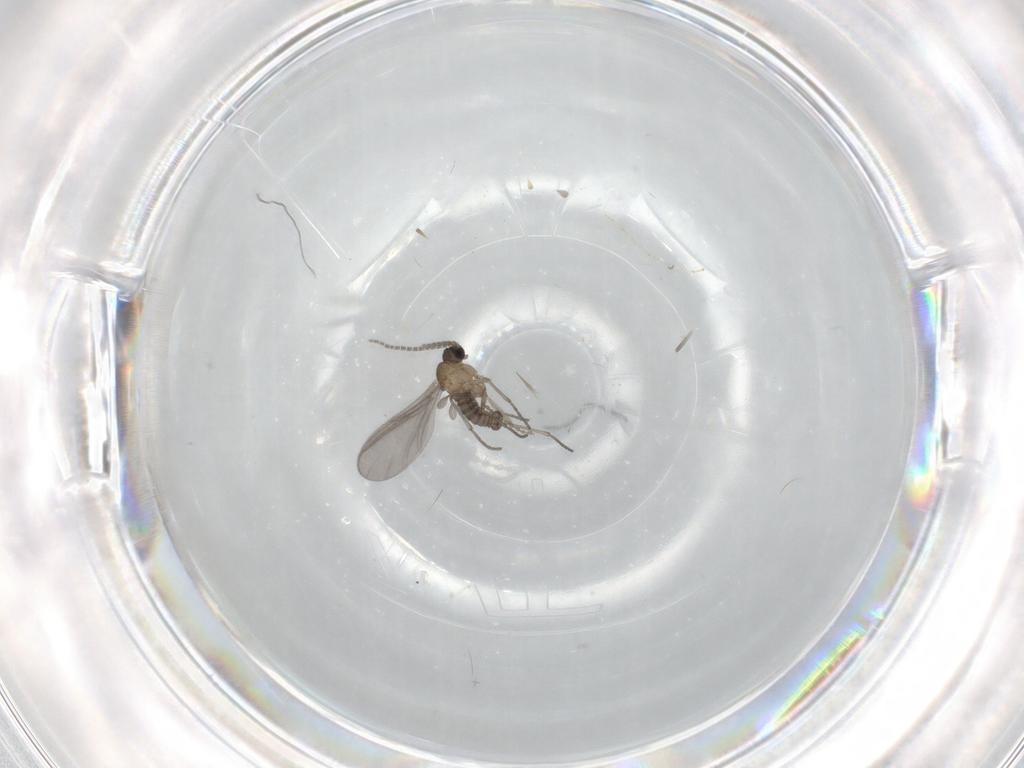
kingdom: Animalia
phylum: Arthropoda
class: Insecta
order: Diptera
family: Sciaridae
